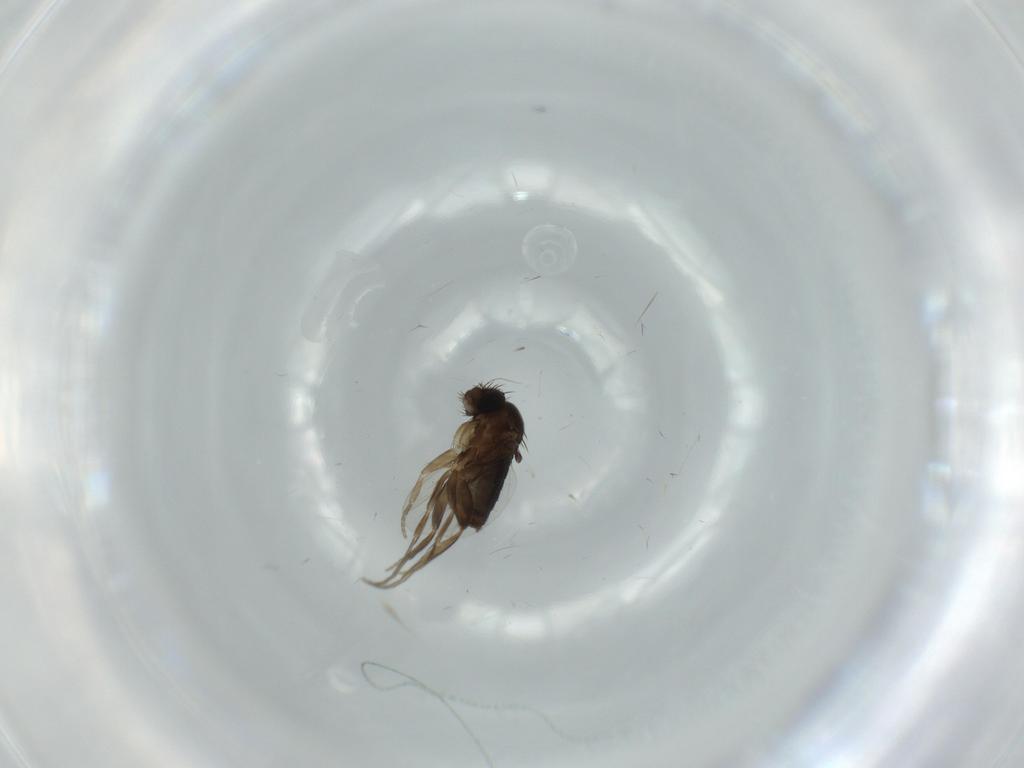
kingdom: Animalia
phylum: Arthropoda
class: Insecta
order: Diptera
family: Phoridae
